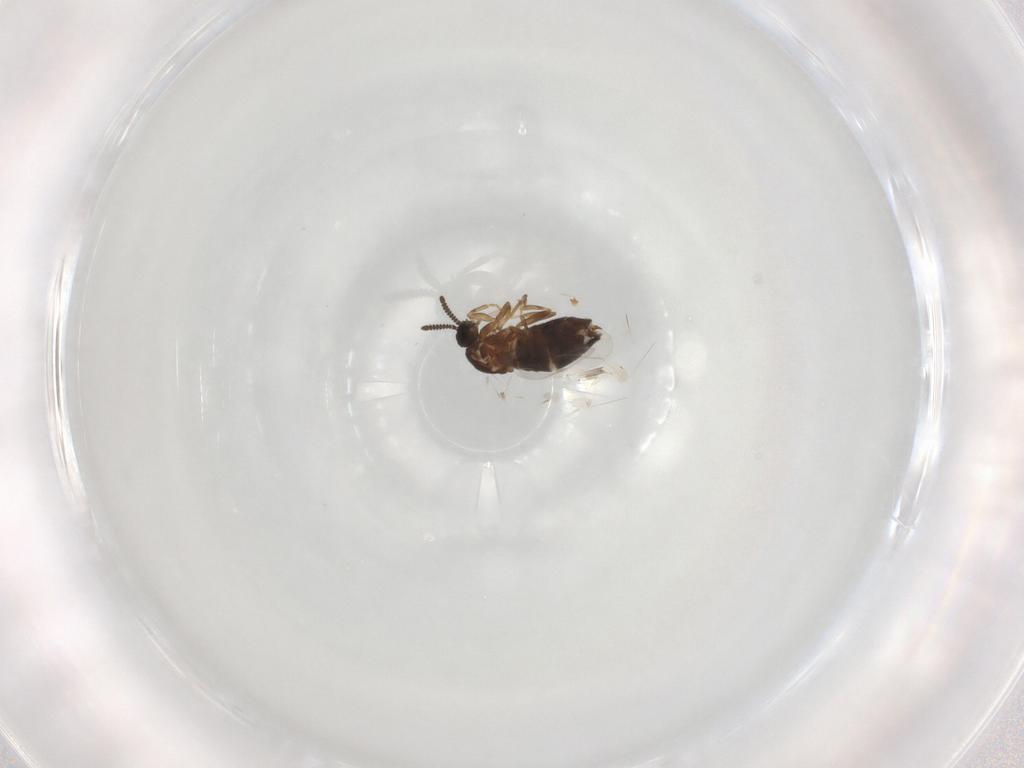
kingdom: Animalia
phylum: Arthropoda
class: Insecta
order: Diptera
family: Scatopsidae
